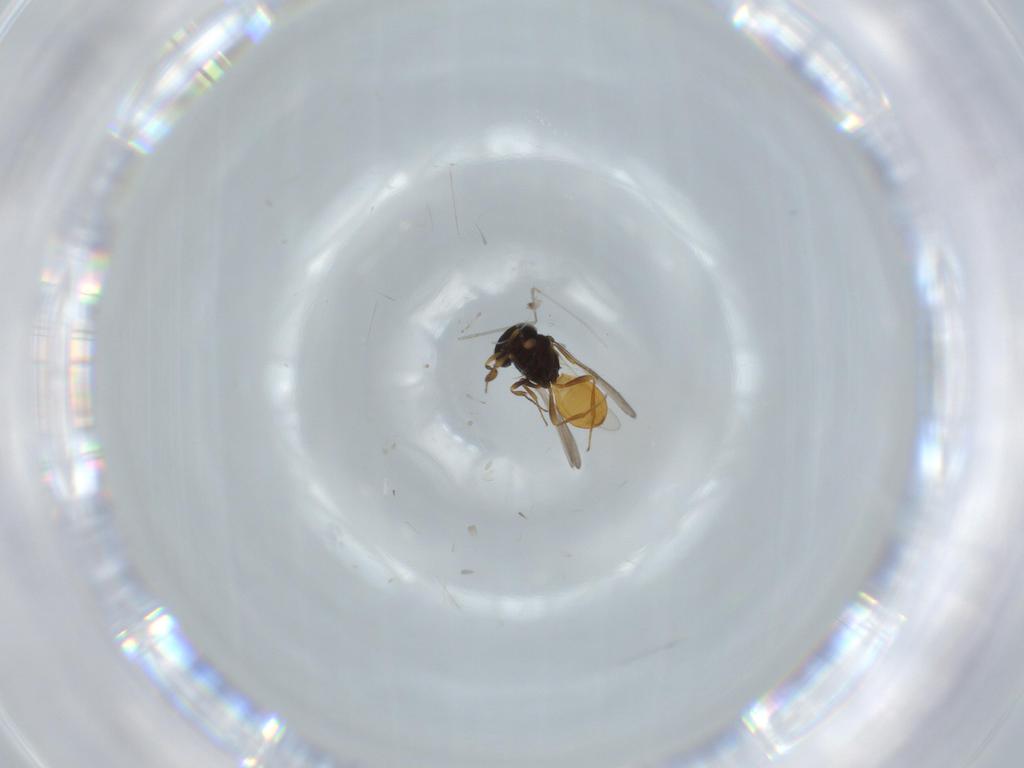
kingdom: Animalia
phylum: Arthropoda
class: Insecta
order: Hymenoptera
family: Scelionidae
